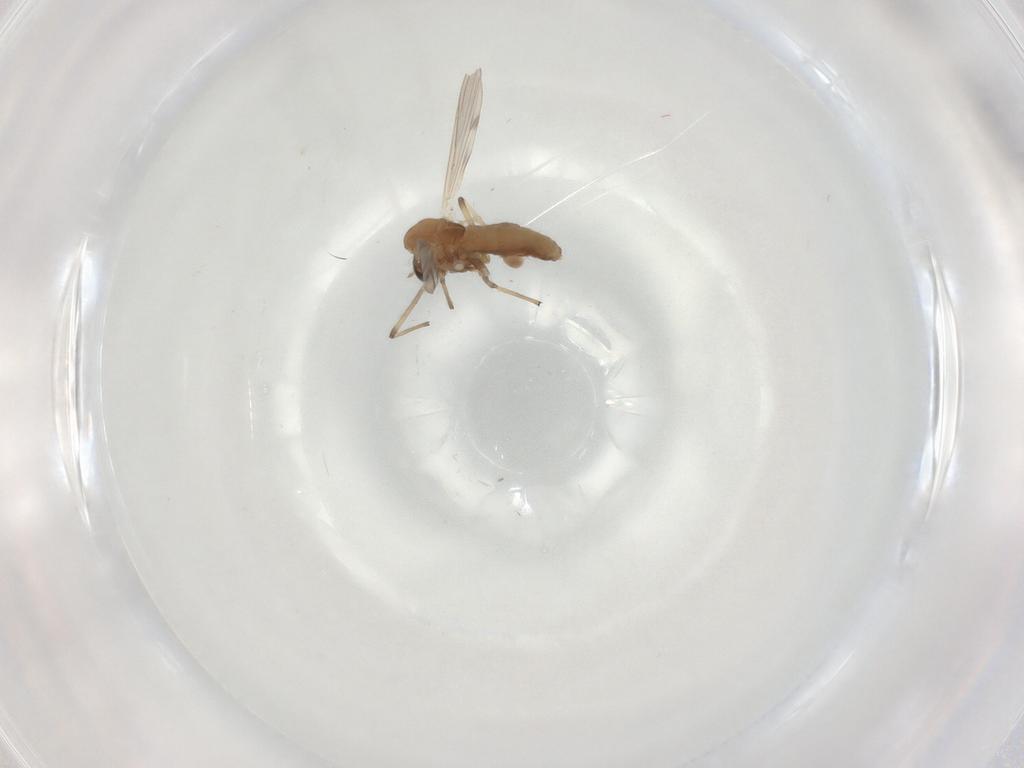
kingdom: Animalia
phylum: Arthropoda
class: Insecta
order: Diptera
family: Chironomidae
